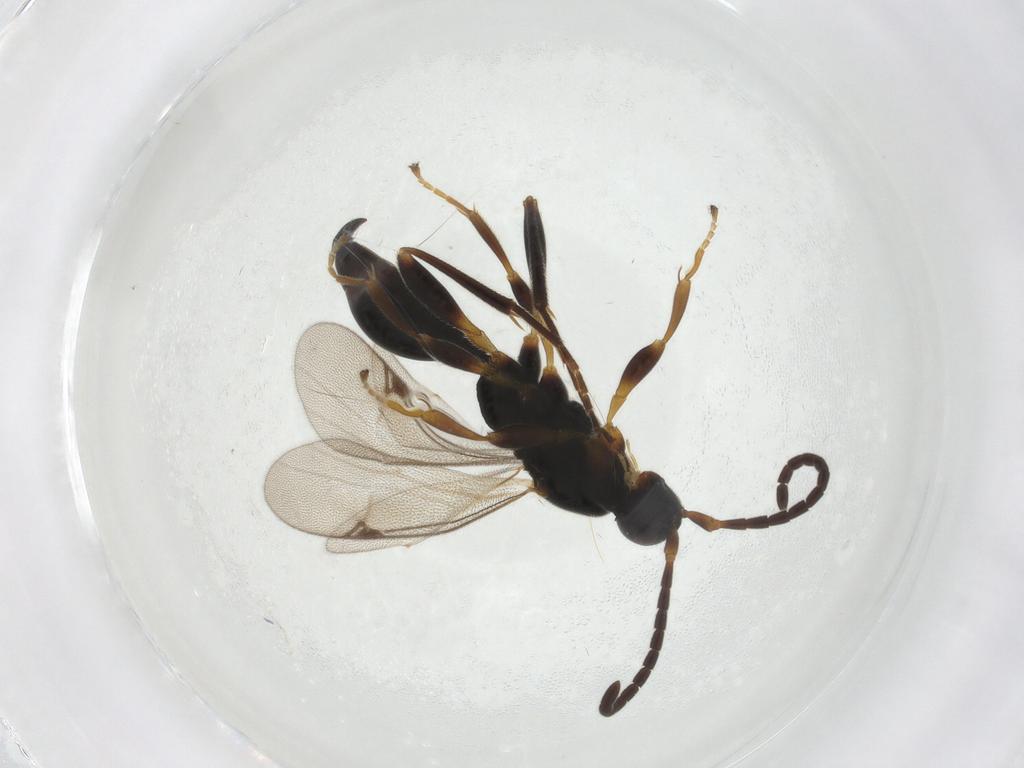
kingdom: Animalia
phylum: Arthropoda
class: Insecta
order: Hymenoptera
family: Proctotrupidae
